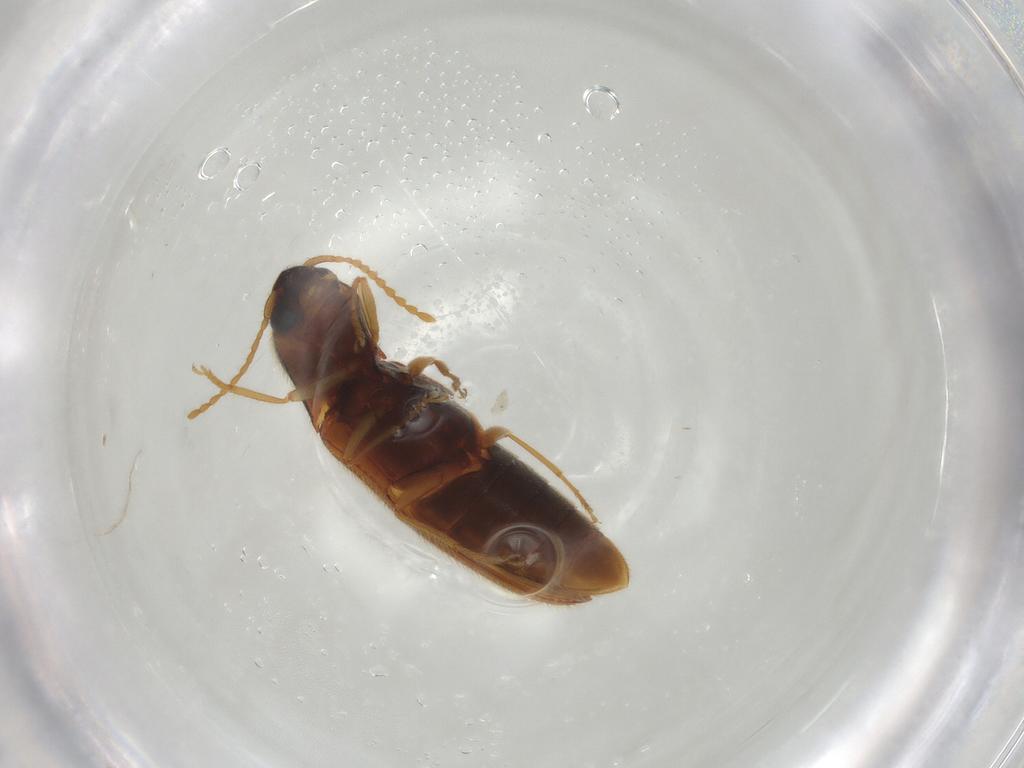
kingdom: Animalia
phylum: Arthropoda
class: Insecta
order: Coleoptera
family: Elateridae
